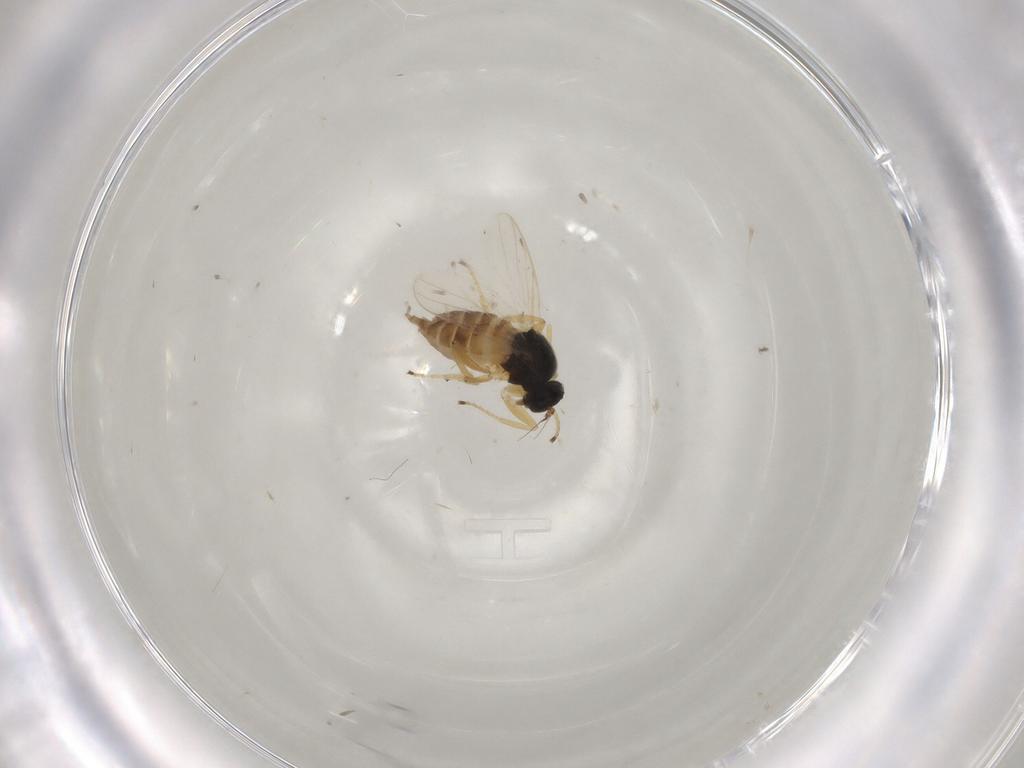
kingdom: Animalia
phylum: Arthropoda
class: Insecta
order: Diptera
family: Hybotidae
